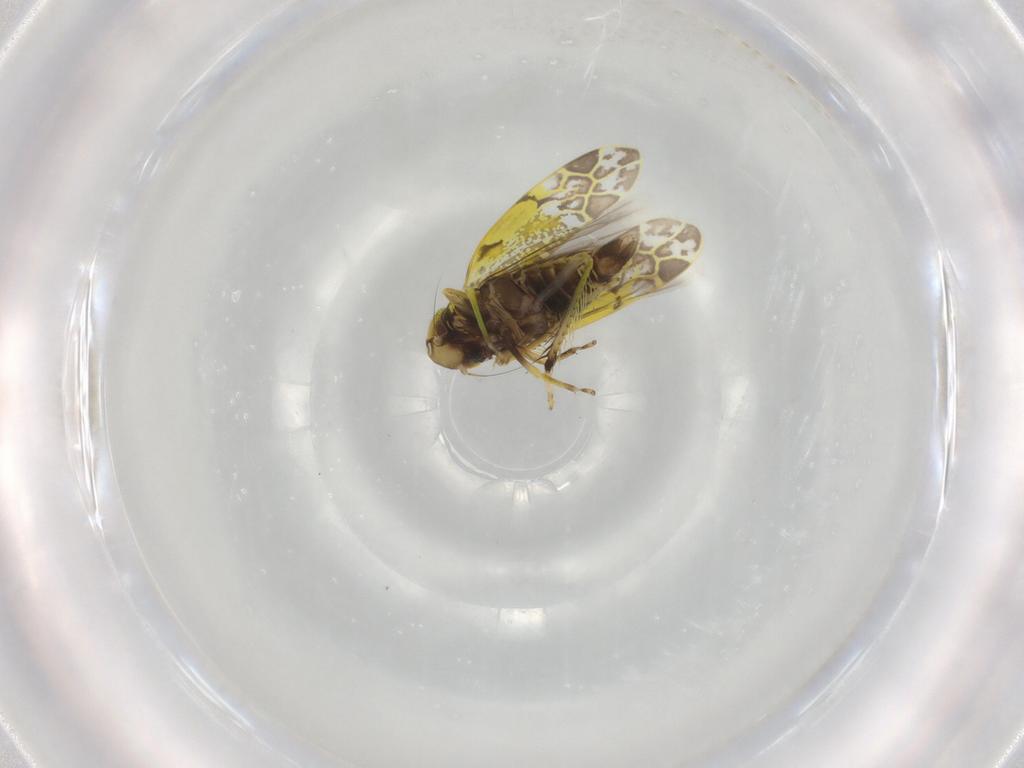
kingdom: Animalia
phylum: Arthropoda
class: Insecta
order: Hemiptera
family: Cicadellidae
